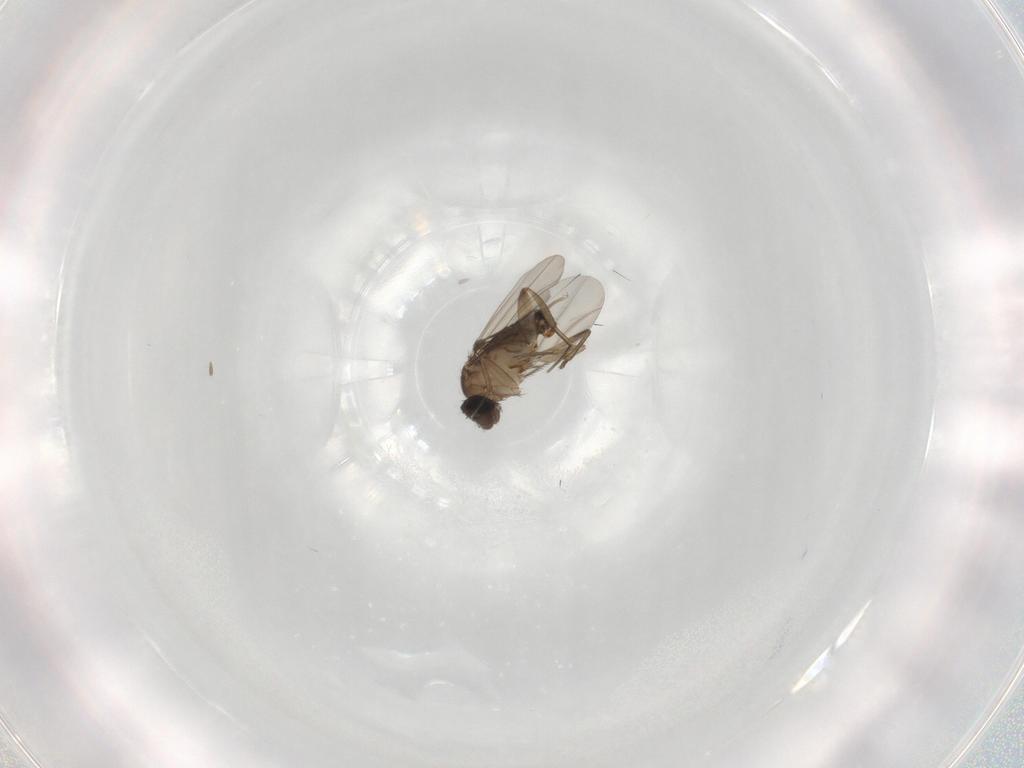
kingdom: Animalia
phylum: Arthropoda
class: Insecta
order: Diptera
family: Phoridae
